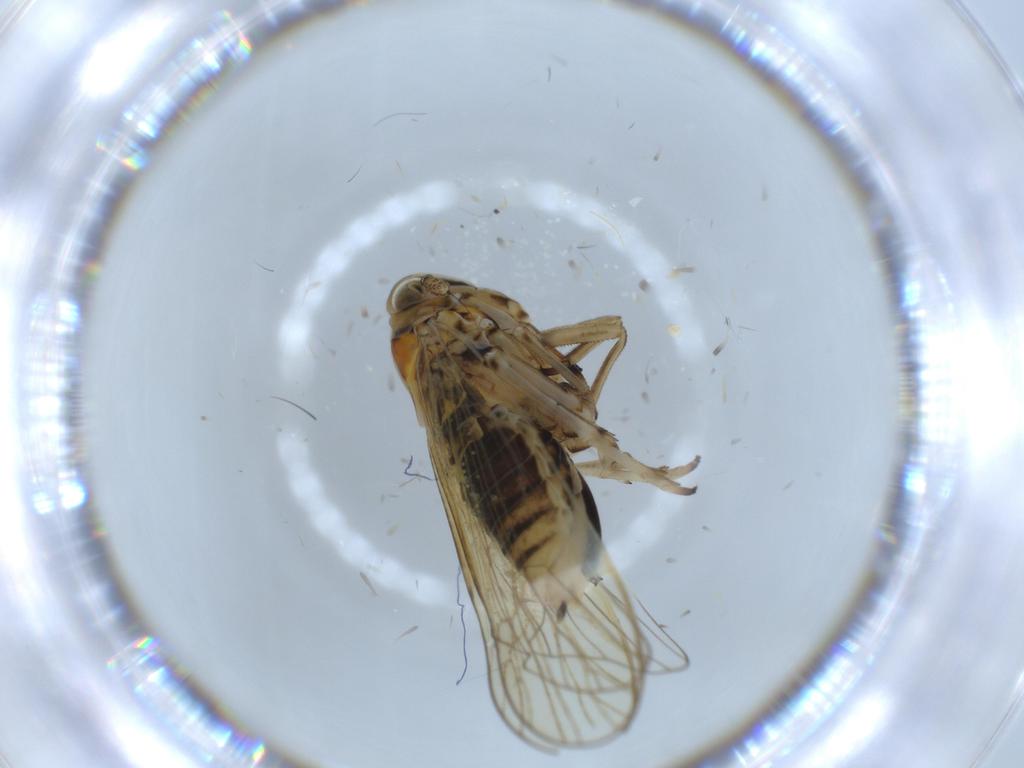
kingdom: Animalia
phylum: Arthropoda
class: Insecta
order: Hemiptera
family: Delphacidae
